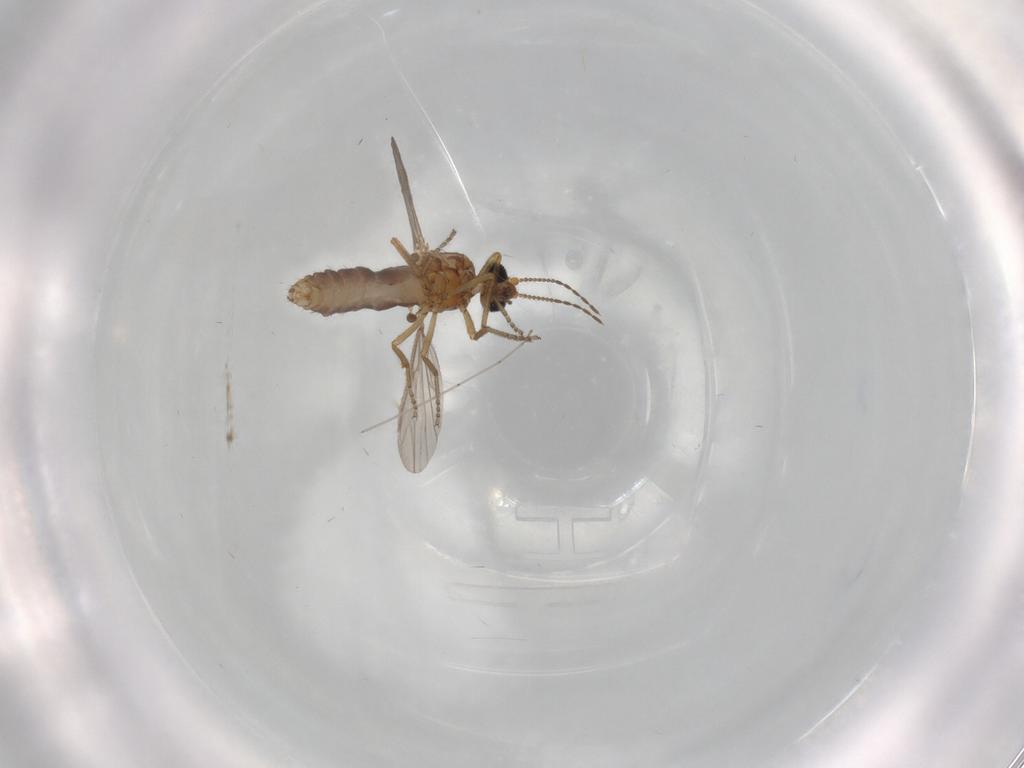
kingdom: Animalia
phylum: Arthropoda
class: Insecta
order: Diptera
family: Ceratopogonidae
